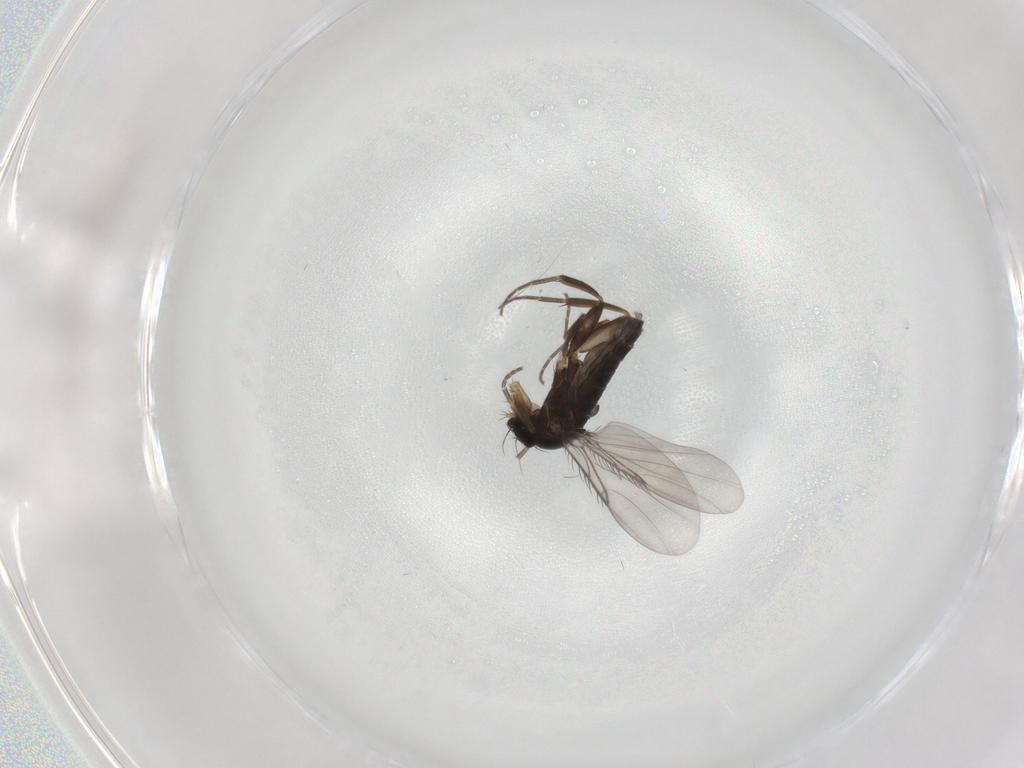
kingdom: Animalia
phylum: Arthropoda
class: Insecta
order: Diptera
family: Phoridae
